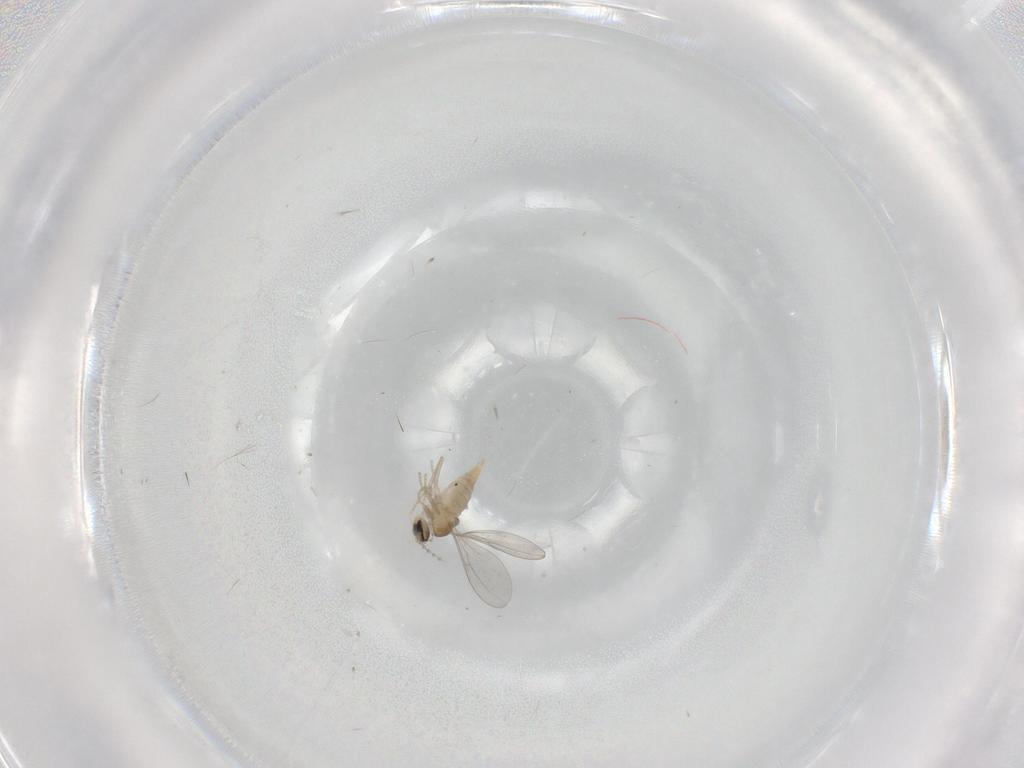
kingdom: Animalia
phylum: Arthropoda
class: Insecta
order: Diptera
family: Cecidomyiidae
